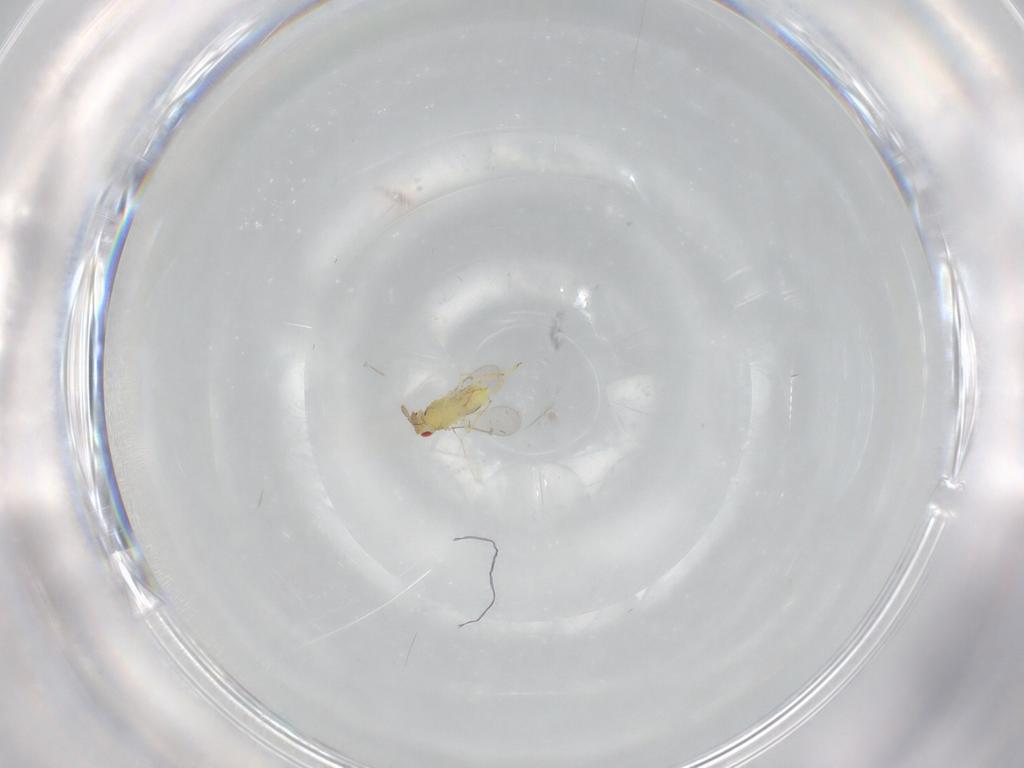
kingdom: Animalia
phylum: Arthropoda
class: Insecta
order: Hymenoptera
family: Aphelinidae
